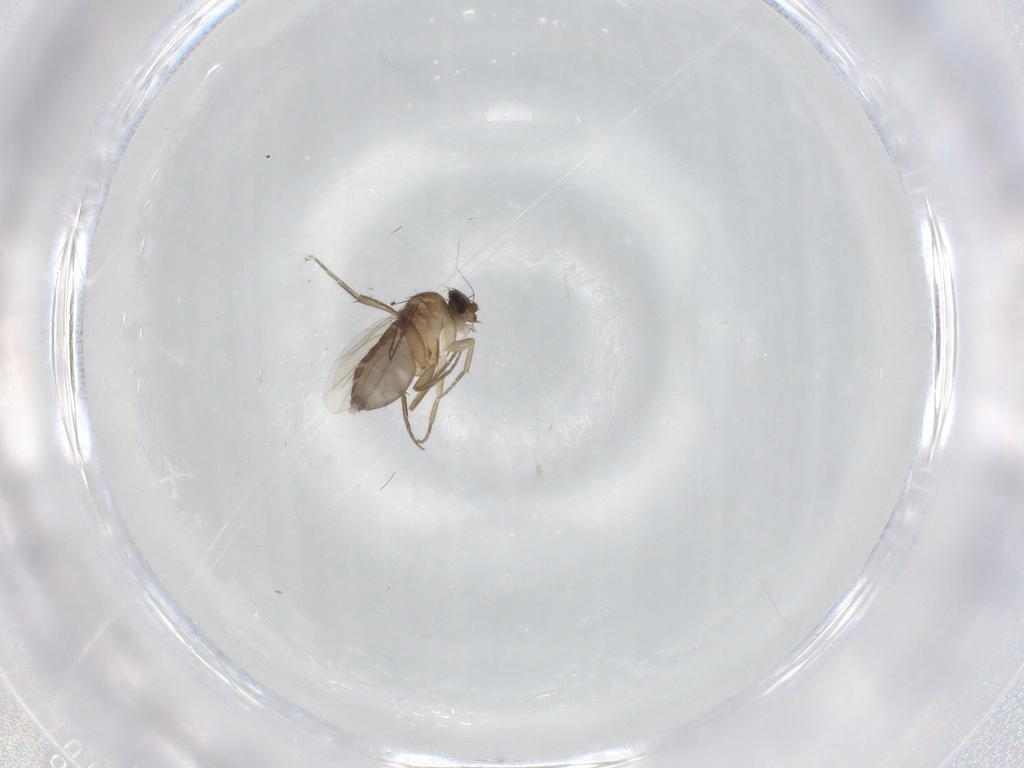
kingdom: Animalia
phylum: Arthropoda
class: Insecta
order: Diptera
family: Phoridae
